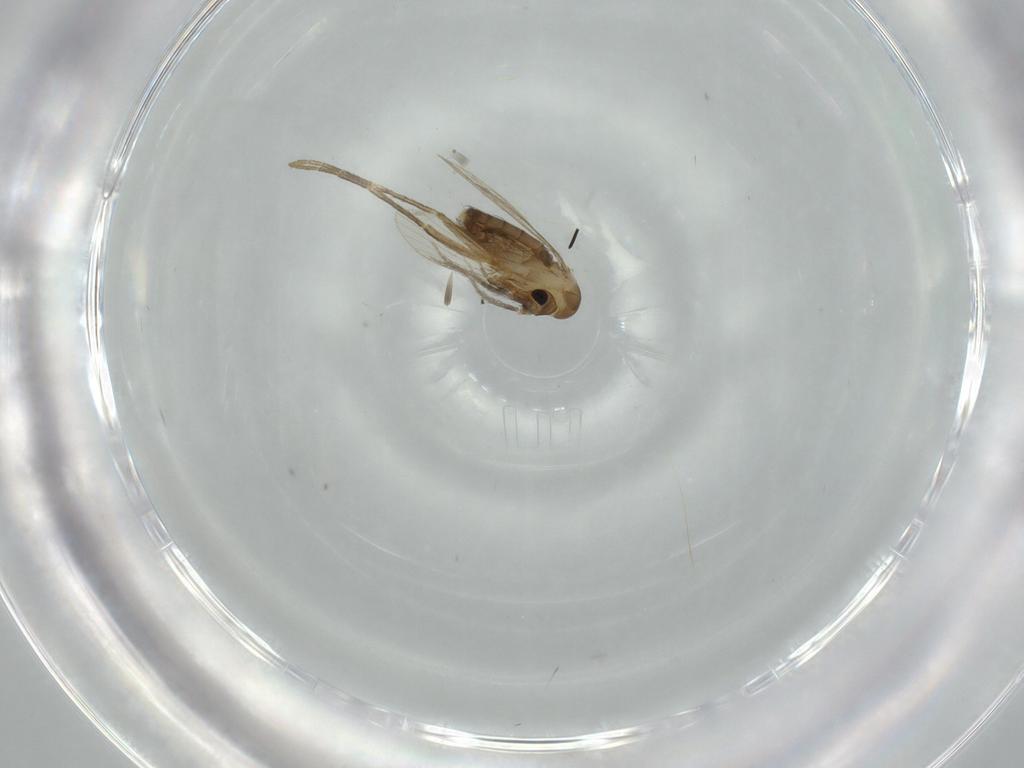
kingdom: Animalia
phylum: Arthropoda
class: Insecta
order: Diptera
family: Psychodidae
